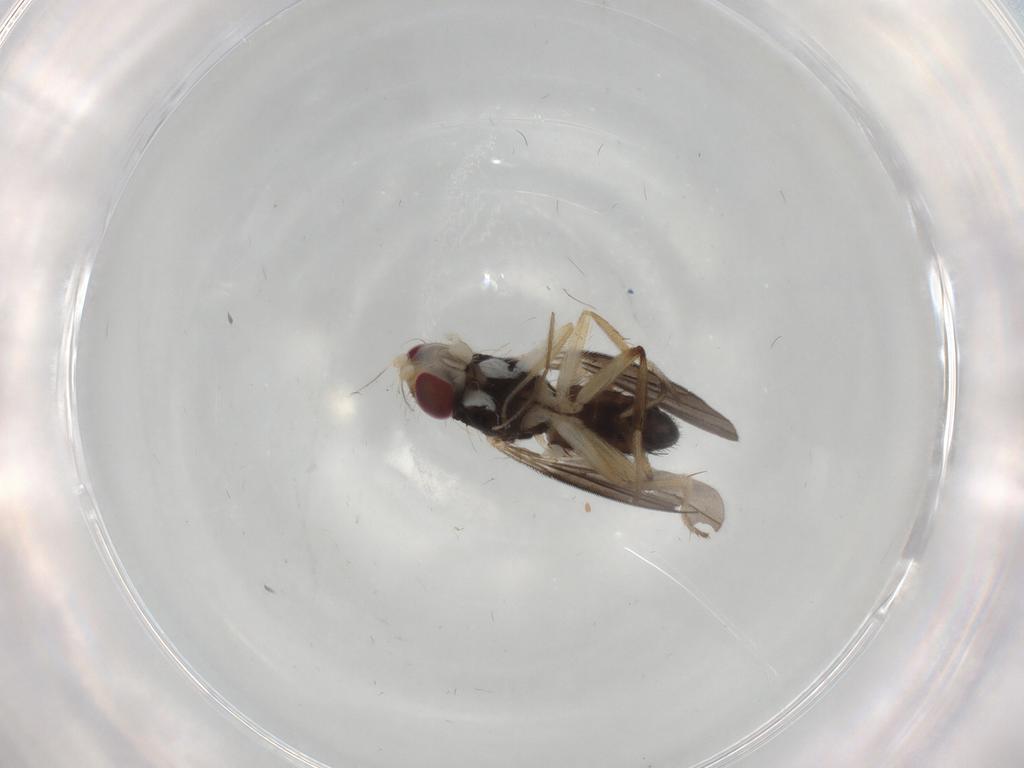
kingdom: Animalia
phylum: Arthropoda
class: Insecta
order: Diptera
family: Clusiidae
